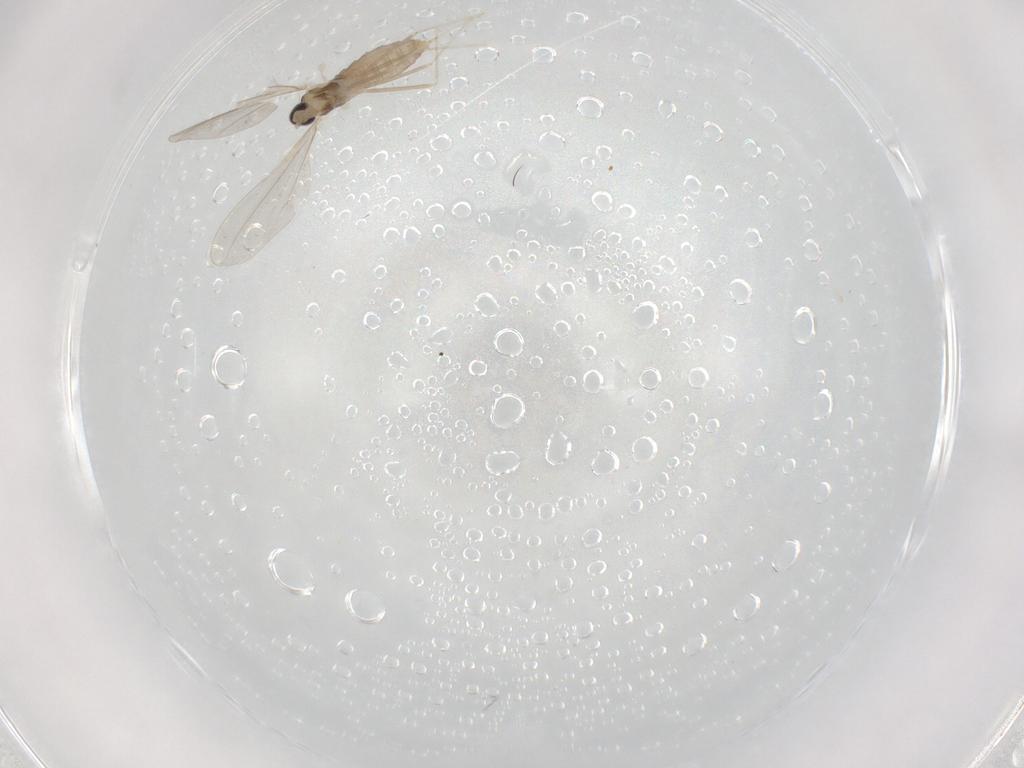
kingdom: Animalia
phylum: Arthropoda
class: Insecta
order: Diptera
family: Cecidomyiidae
